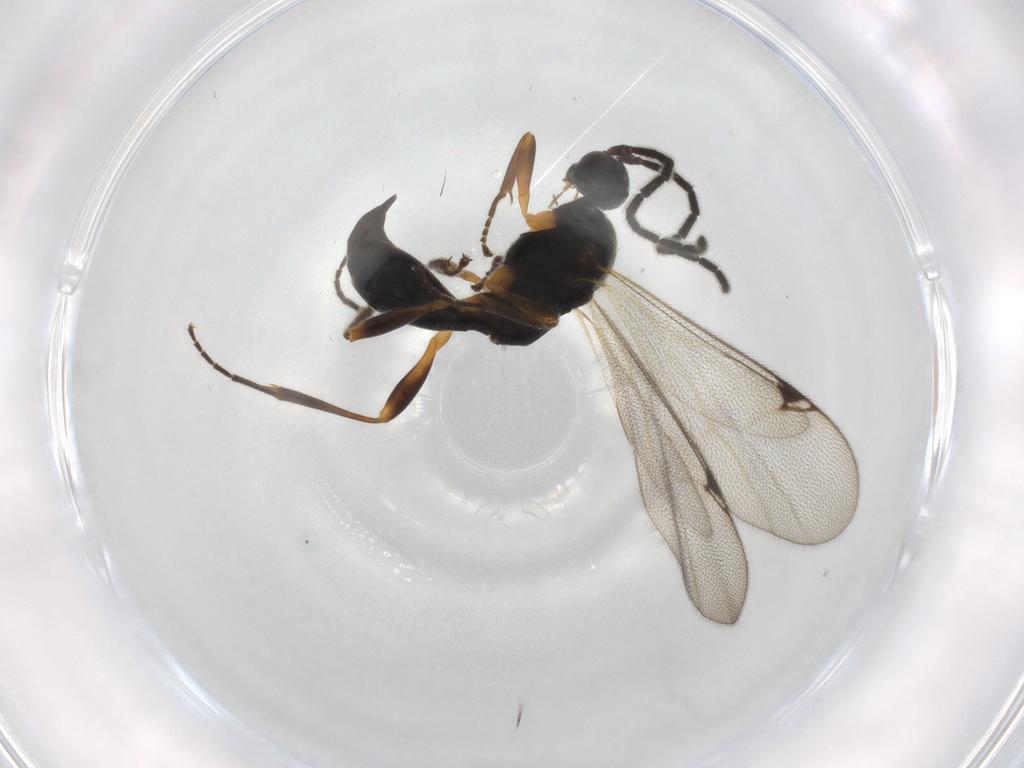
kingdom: Animalia
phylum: Arthropoda
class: Insecta
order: Hymenoptera
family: Proctotrupidae
